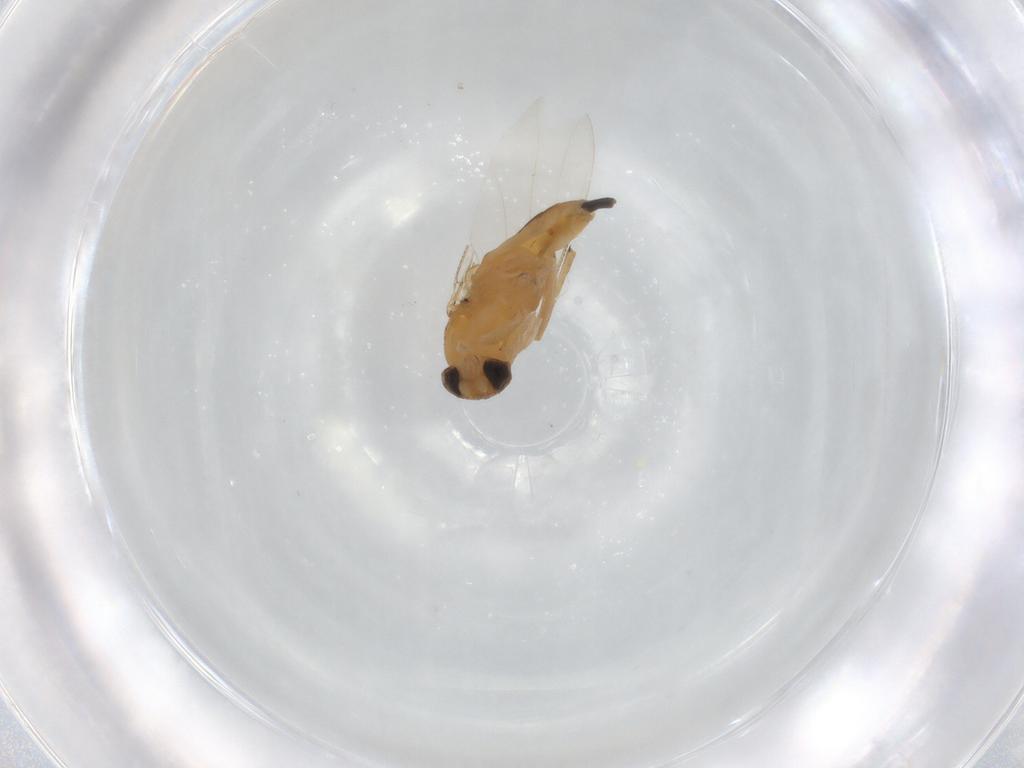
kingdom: Animalia
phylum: Arthropoda
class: Insecta
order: Diptera
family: Phoridae
